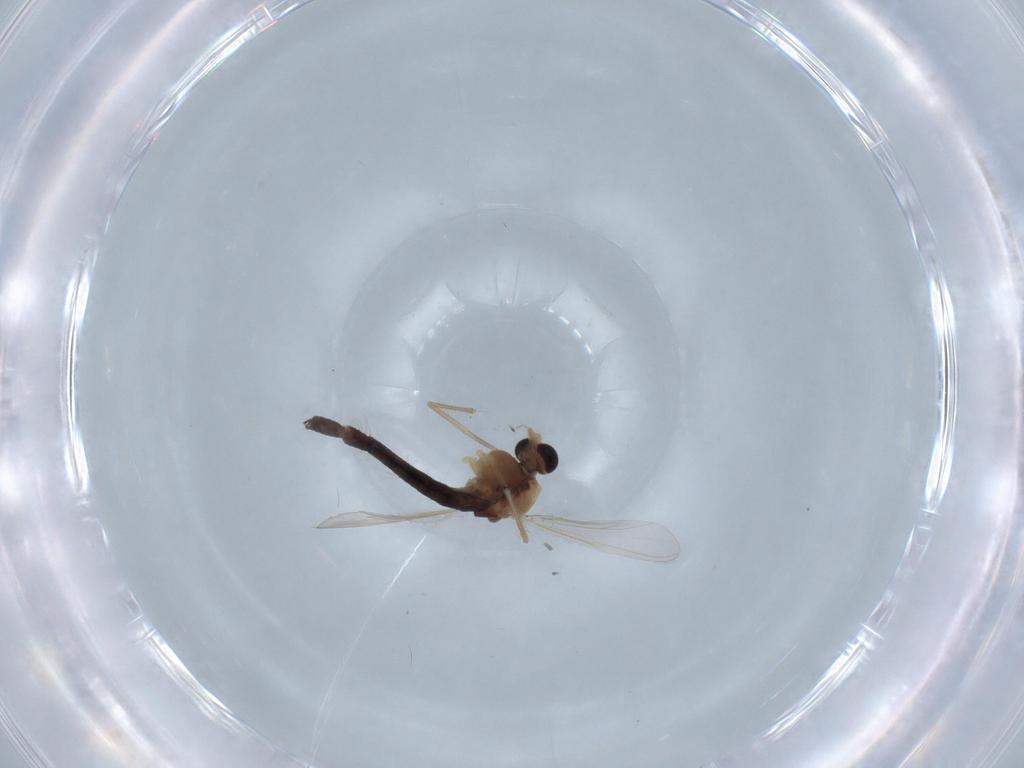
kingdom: Animalia
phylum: Arthropoda
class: Insecta
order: Diptera
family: Chironomidae
